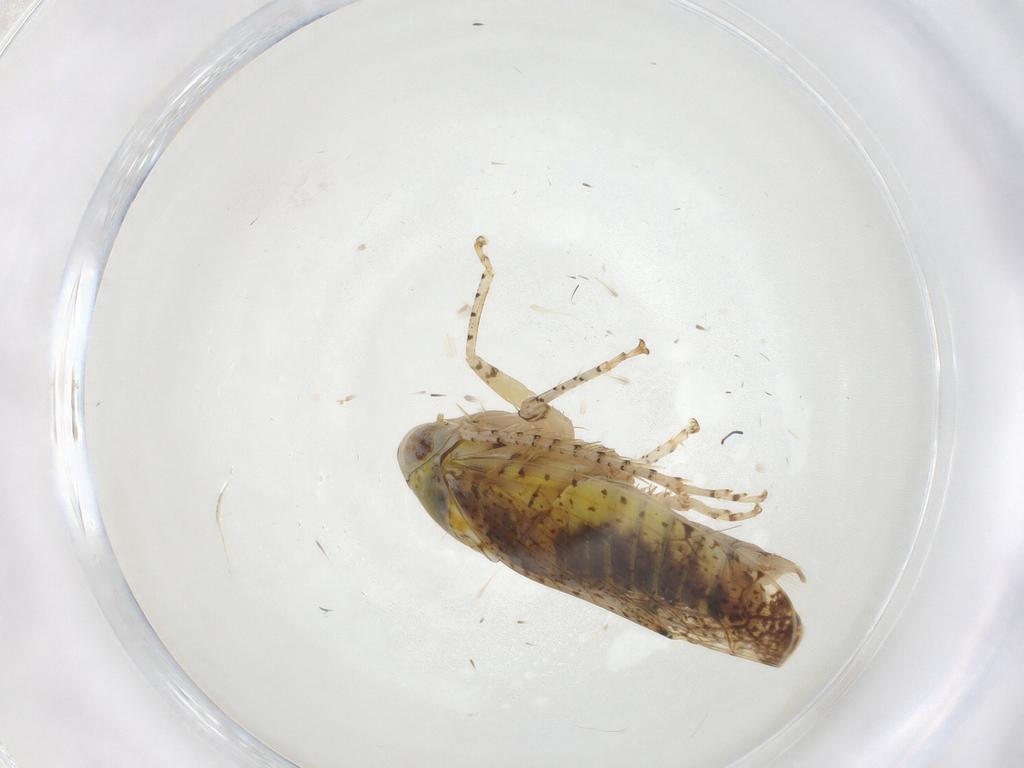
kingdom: Animalia
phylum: Arthropoda
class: Insecta
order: Hemiptera
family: Cicadellidae
